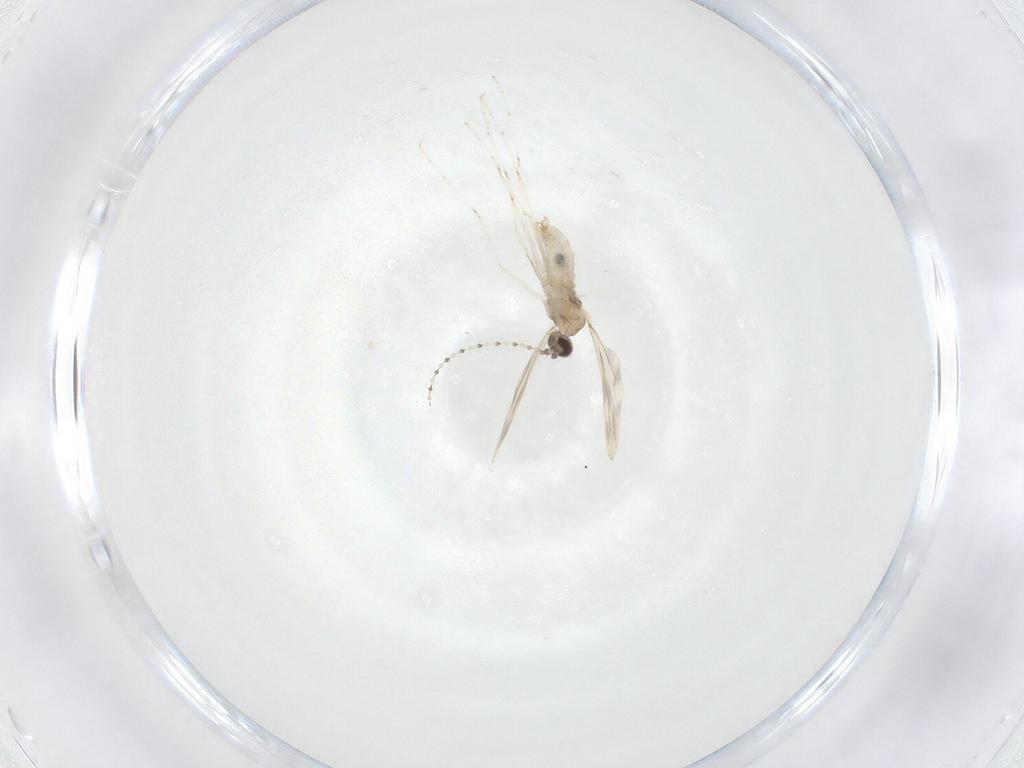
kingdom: Animalia
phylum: Arthropoda
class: Insecta
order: Diptera
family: Cecidomyiidae
